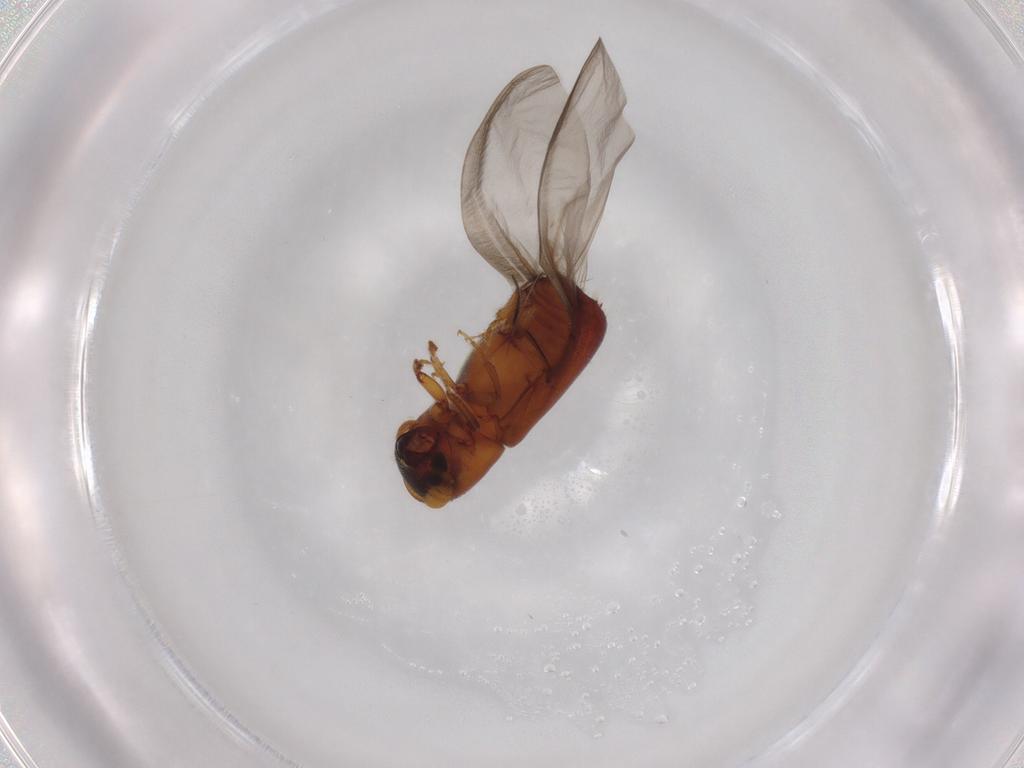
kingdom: Animalia
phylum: Arthropoda
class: Insecta
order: Coleoptera
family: Curculionidae
